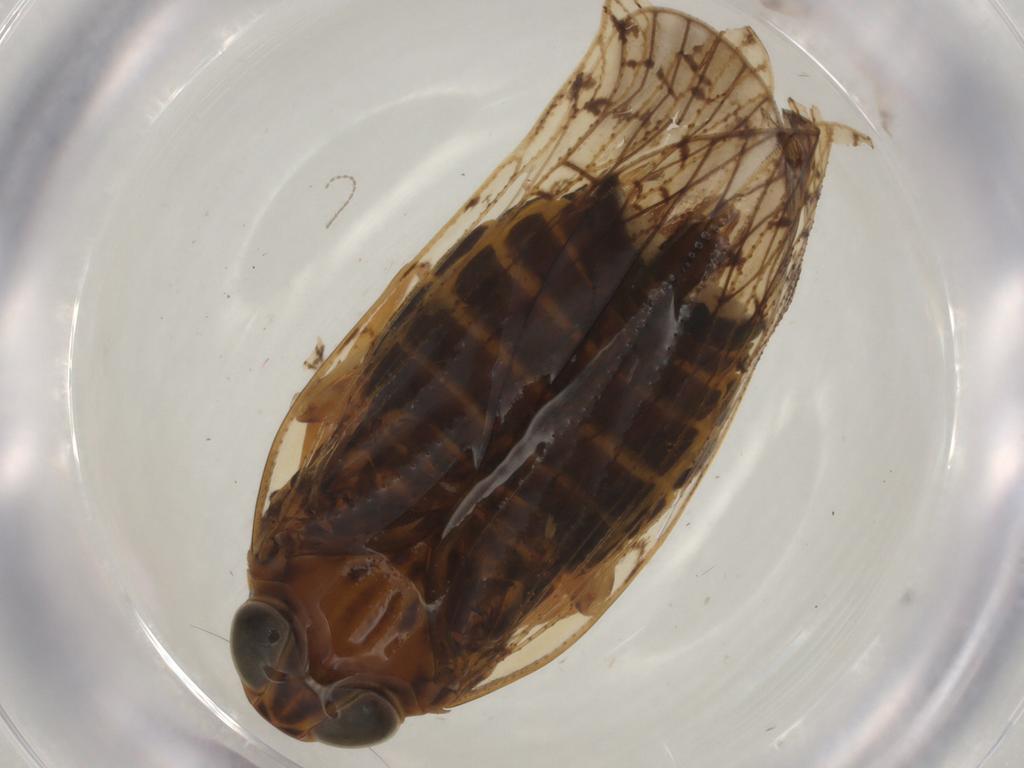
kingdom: Animalia
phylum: Arthropoda
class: Insecta
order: Hemiptera
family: Cixiidae
